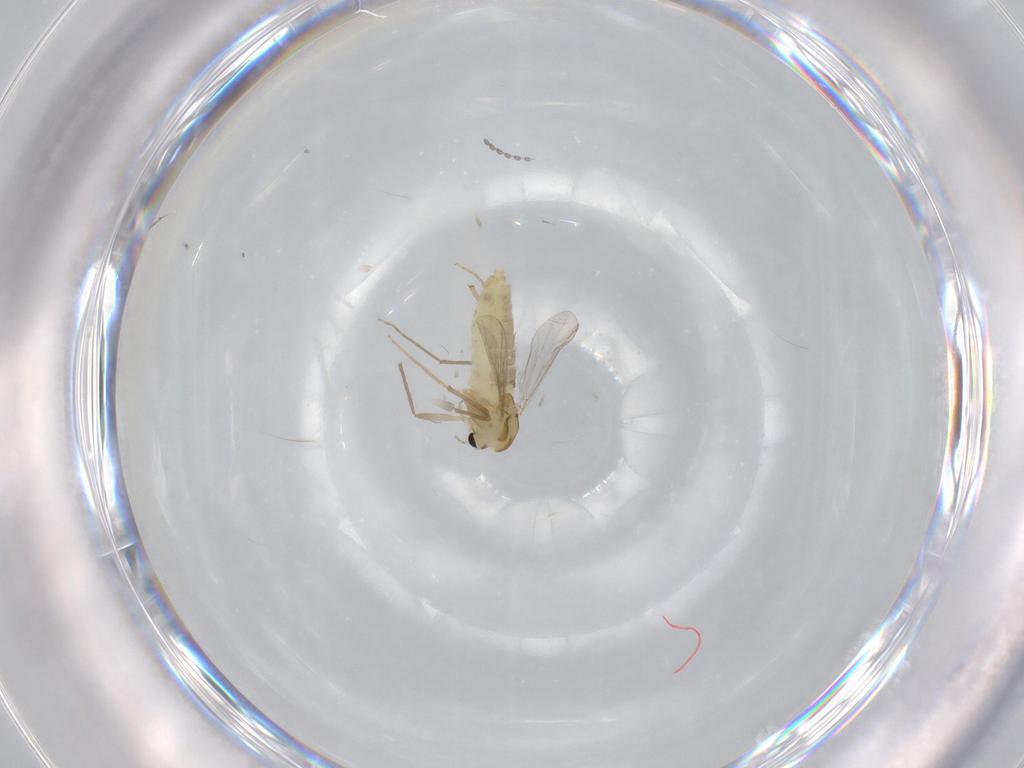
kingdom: Animalia
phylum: Arthropoda
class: Insecta
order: Diptera
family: Chironomidae
